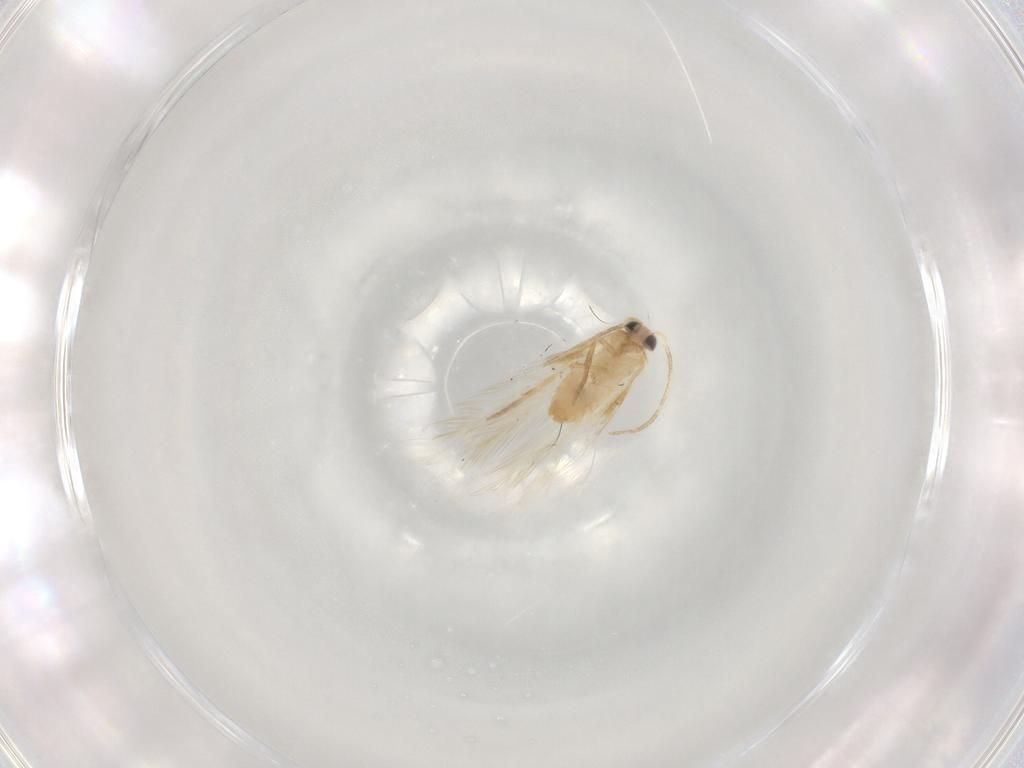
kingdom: Animalia
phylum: Arthropoda
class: Insecta
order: Lepidoptera
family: Nepticulidae
